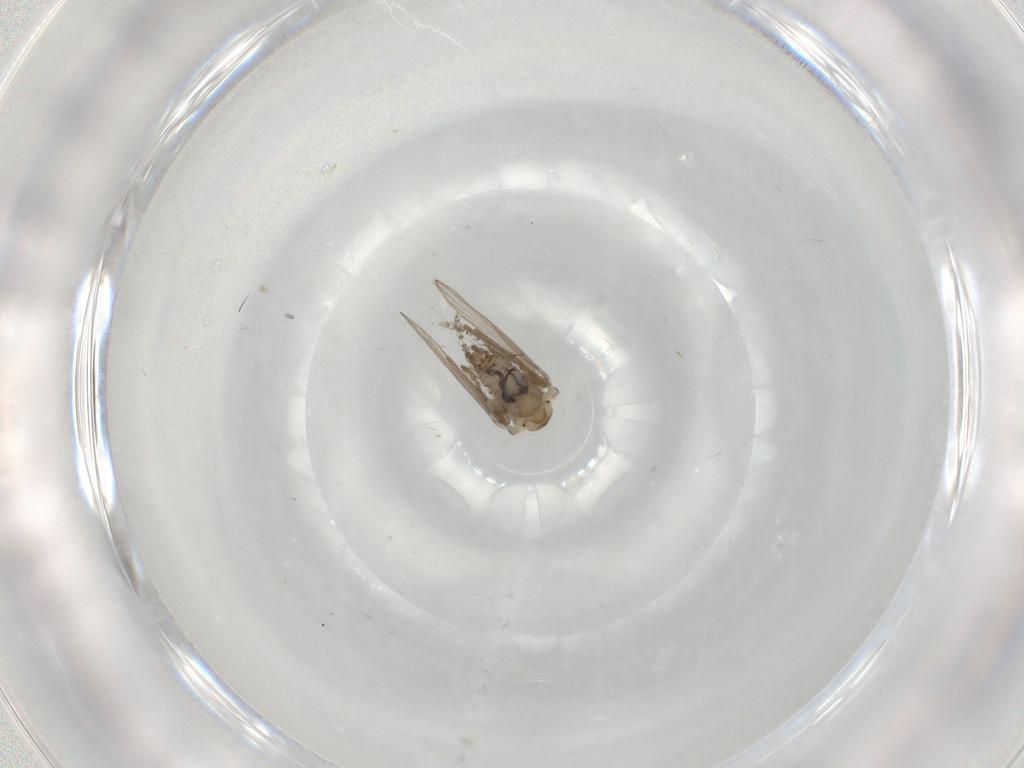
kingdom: Animalia
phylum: Arthropoda
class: Insecta
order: Diptera
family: Psychodidae
